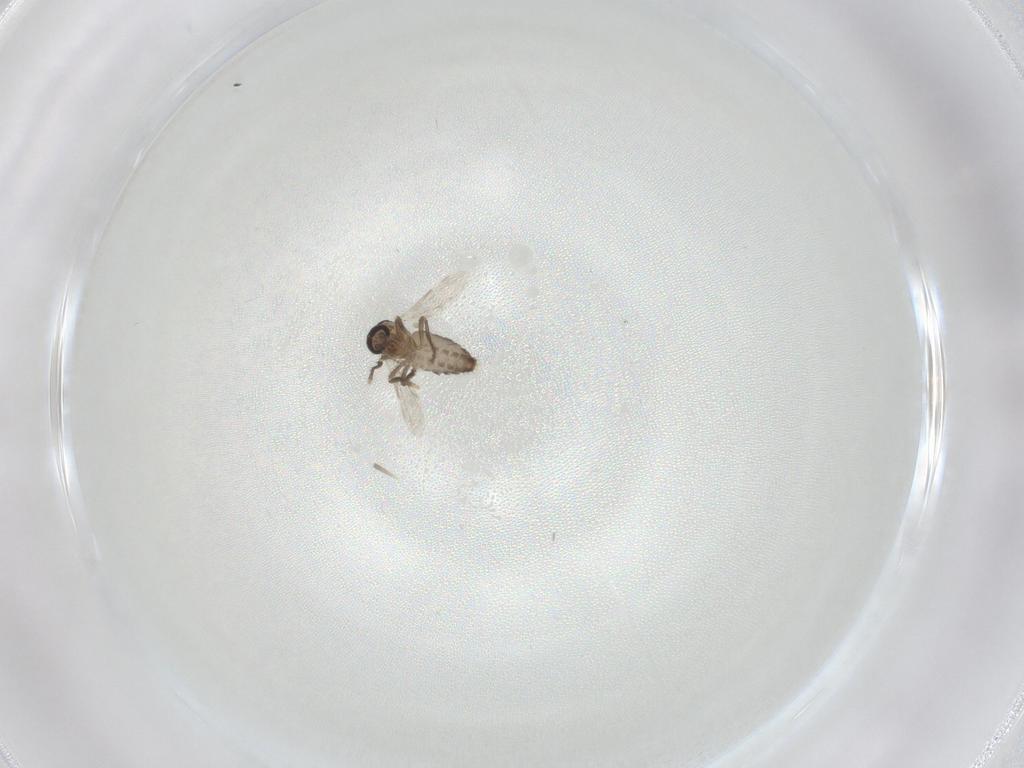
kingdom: Animalia
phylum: Arthropoda
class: Insecta
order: Diptera
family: Ceratopogonidae
